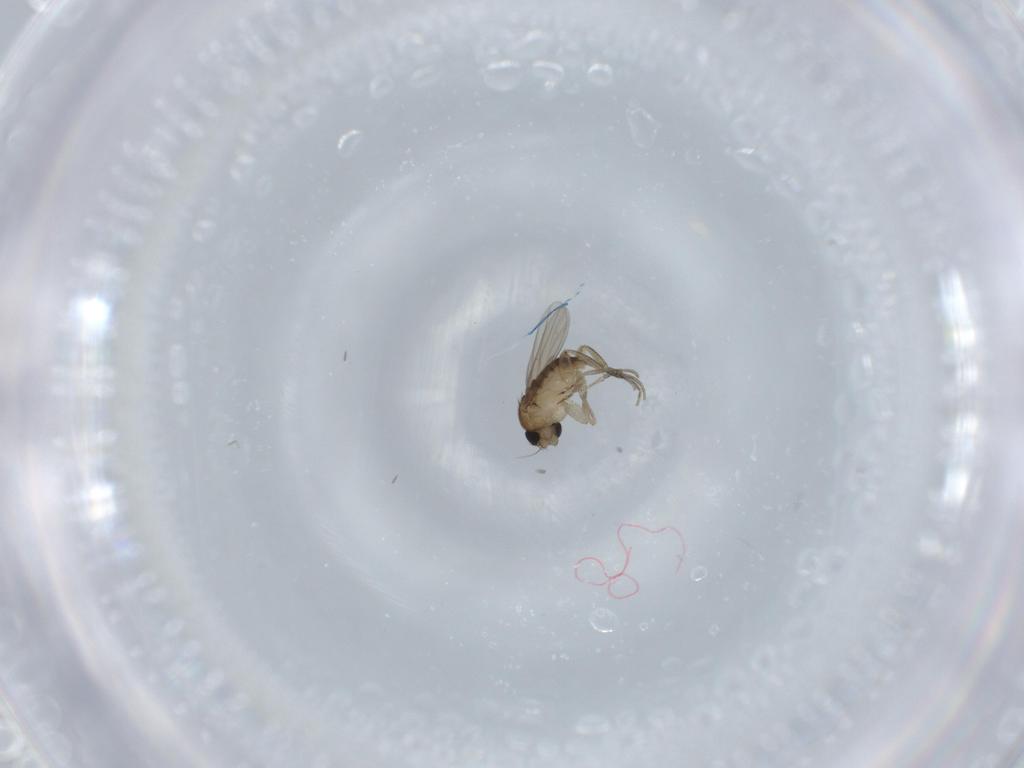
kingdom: Animalia
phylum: Arthropoda
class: Insecta
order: Diptera
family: Phoridae
